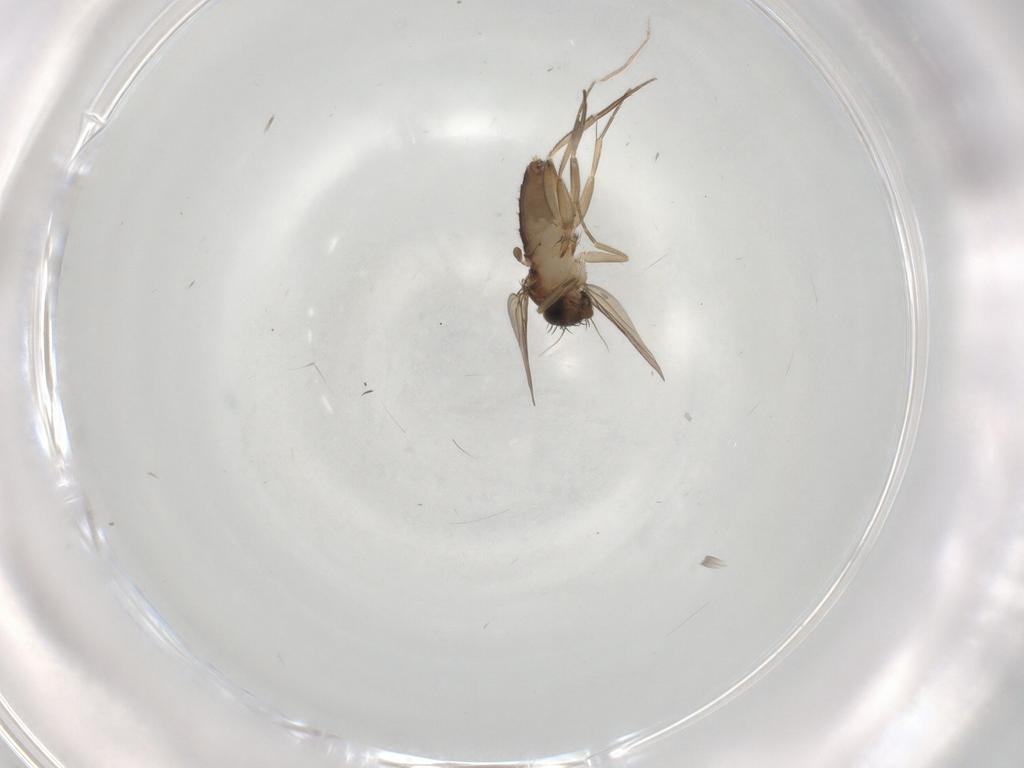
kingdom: Animalia
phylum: Arthropoda
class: Insecta
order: Diptera
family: Phoridae
